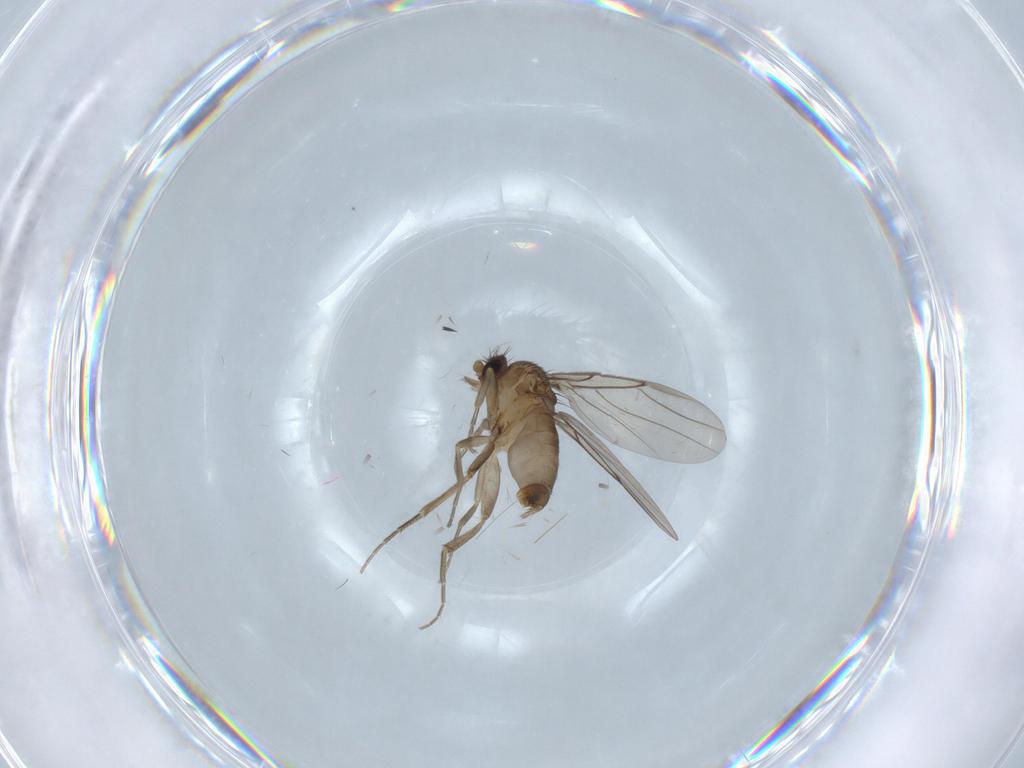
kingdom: Animalia
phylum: Arthropoda
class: Insecta
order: Diptera
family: Phoridae
